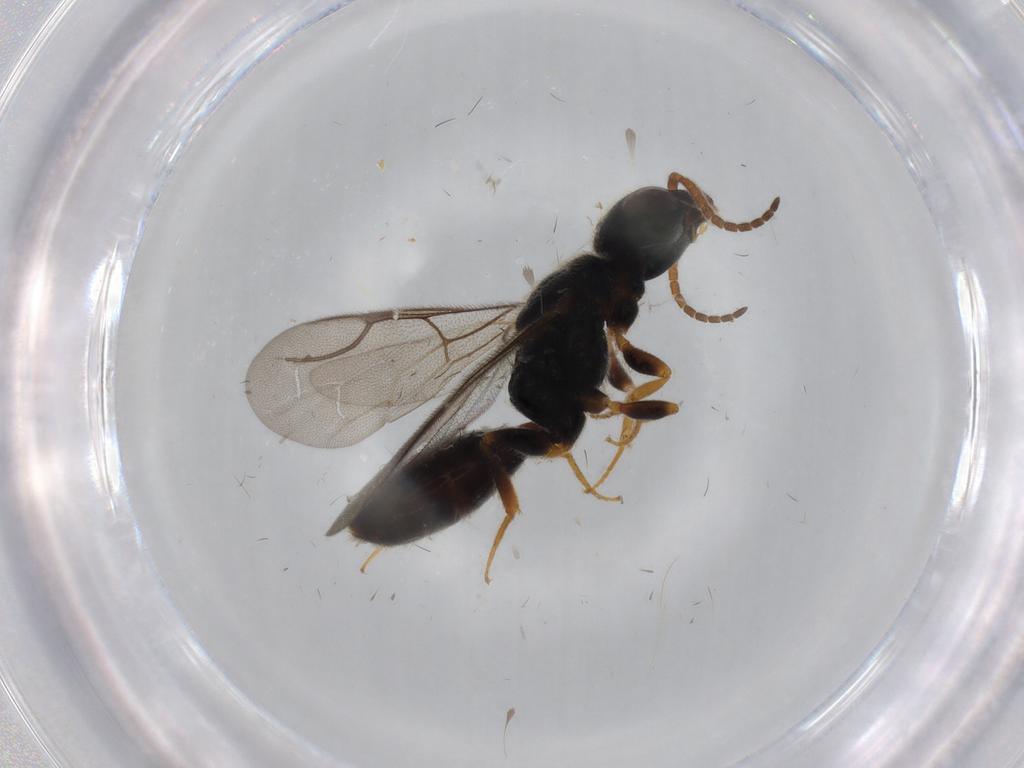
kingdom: Animalia
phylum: Arthropoda
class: Insecta
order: Hymenoptera
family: Bethylidae
